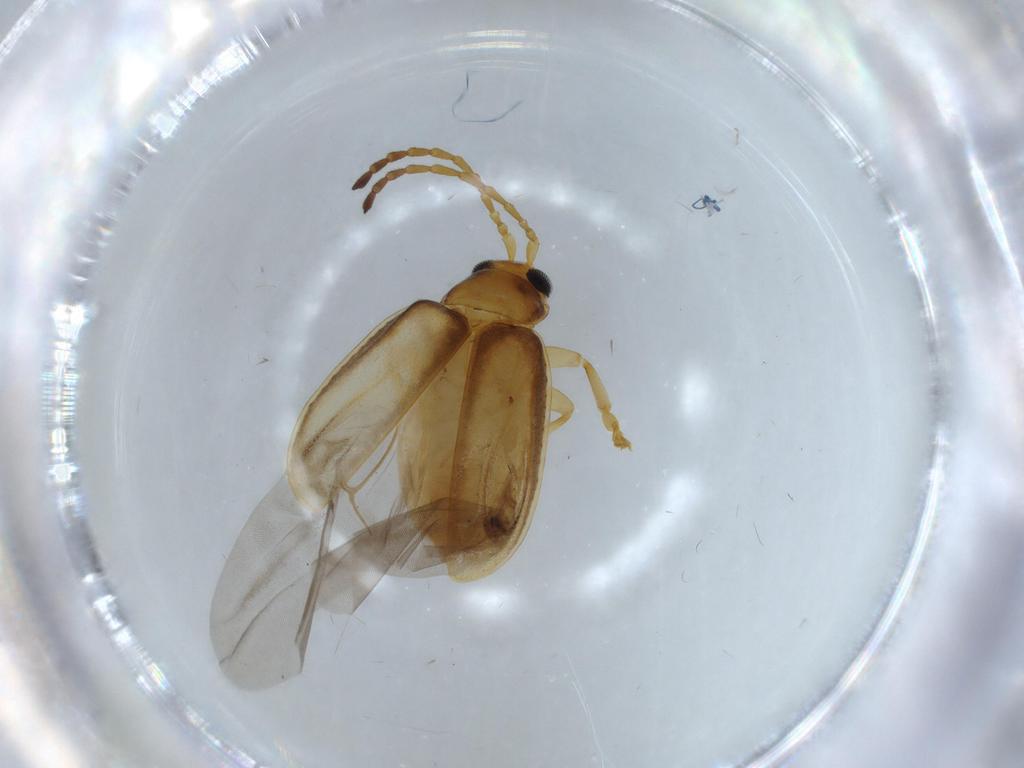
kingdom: Animalia
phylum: Arthropoda
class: Insecta
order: Coleoptera
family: Chrysomelidae
